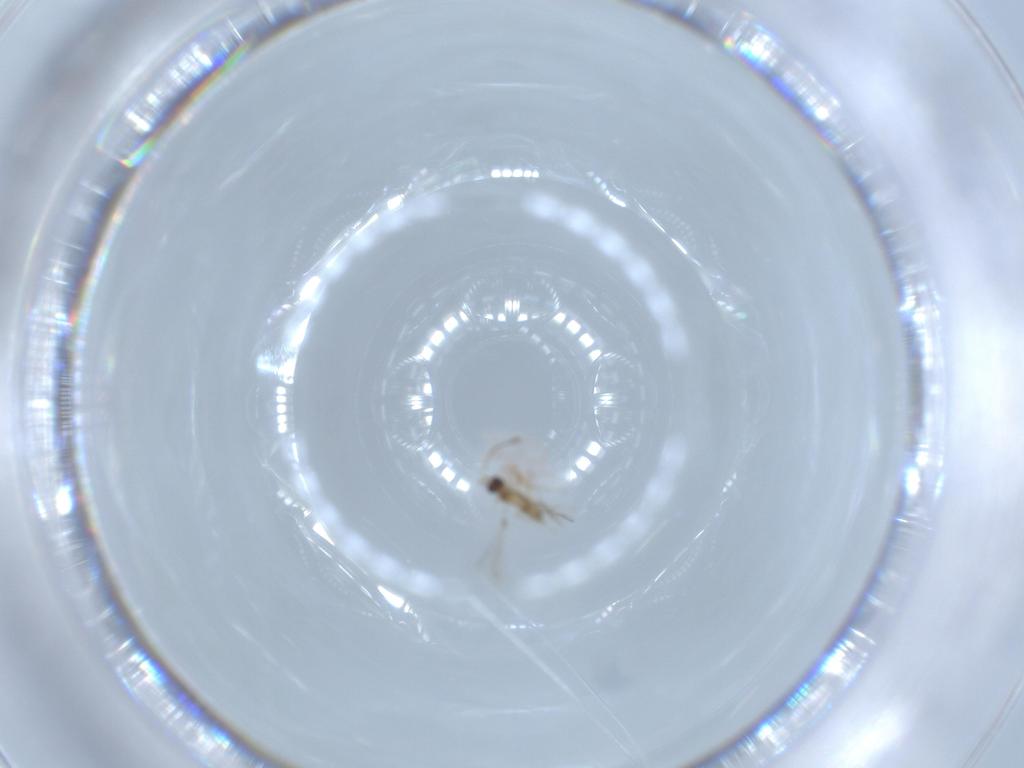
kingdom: Animalia
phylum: Arthropoda
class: Insecta
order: Hymenoptera
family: Mymaridae
